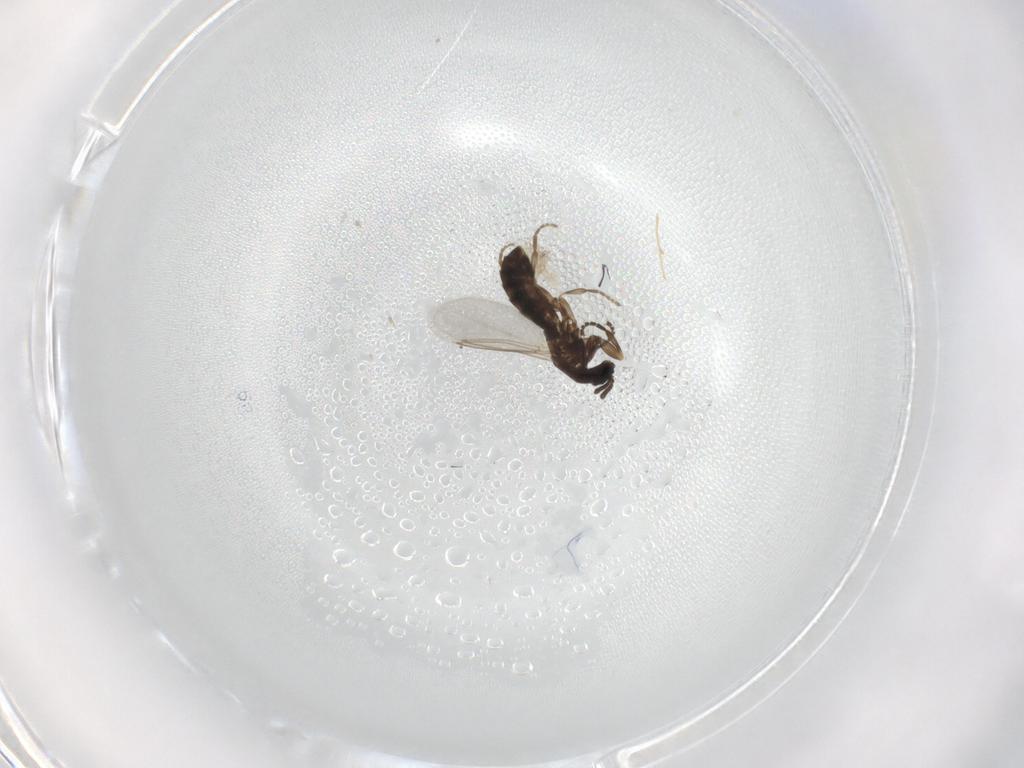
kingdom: Animalia
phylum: Arthropoda
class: Insecta
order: Diptera
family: Scatopsidae
